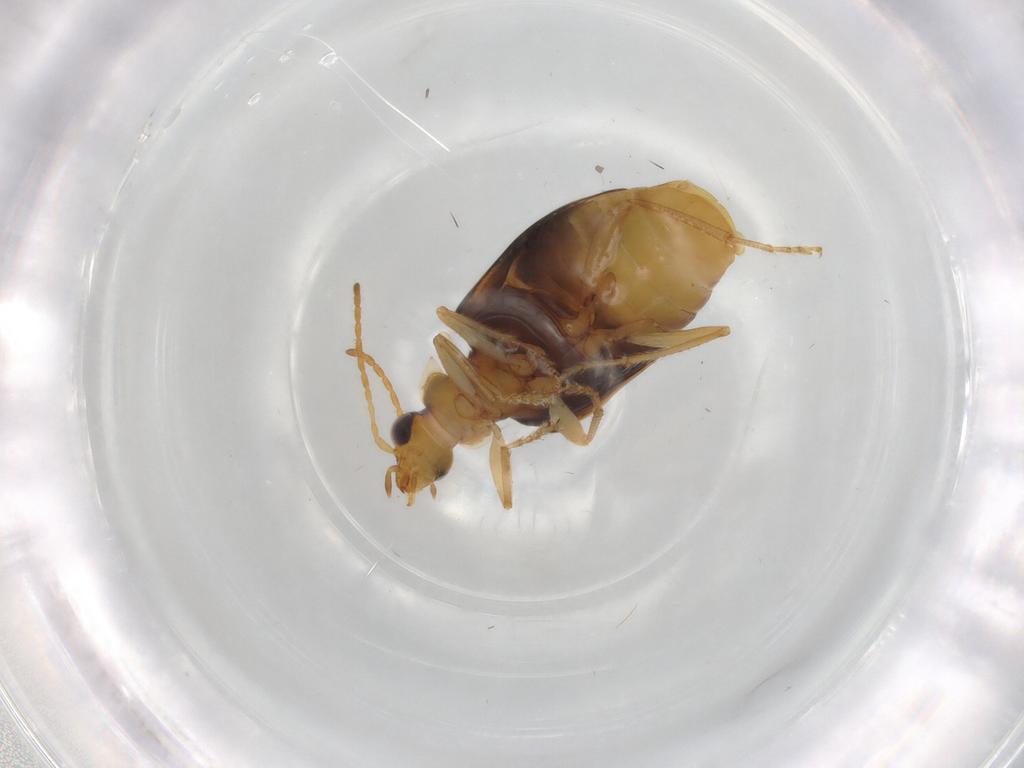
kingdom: Animalia
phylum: Arthropoda
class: Insecta
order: Coleoptera
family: Carabidae
